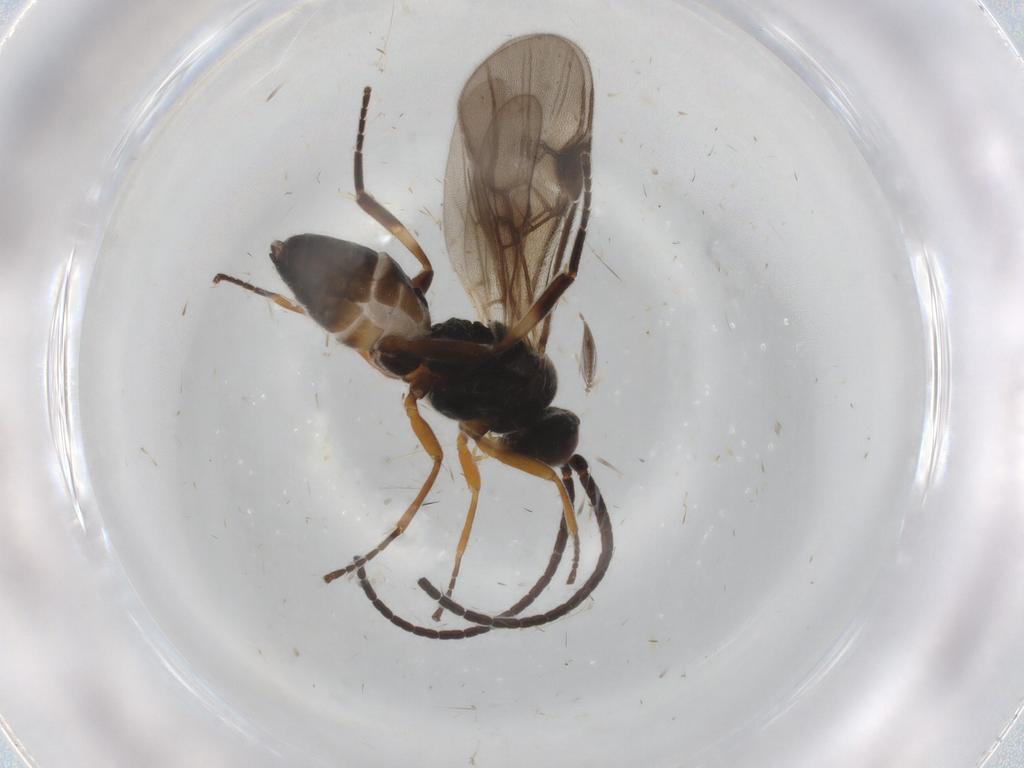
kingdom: Animalia
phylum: Arthropoda
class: Insecta
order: Hymenoptera
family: Braconidae
